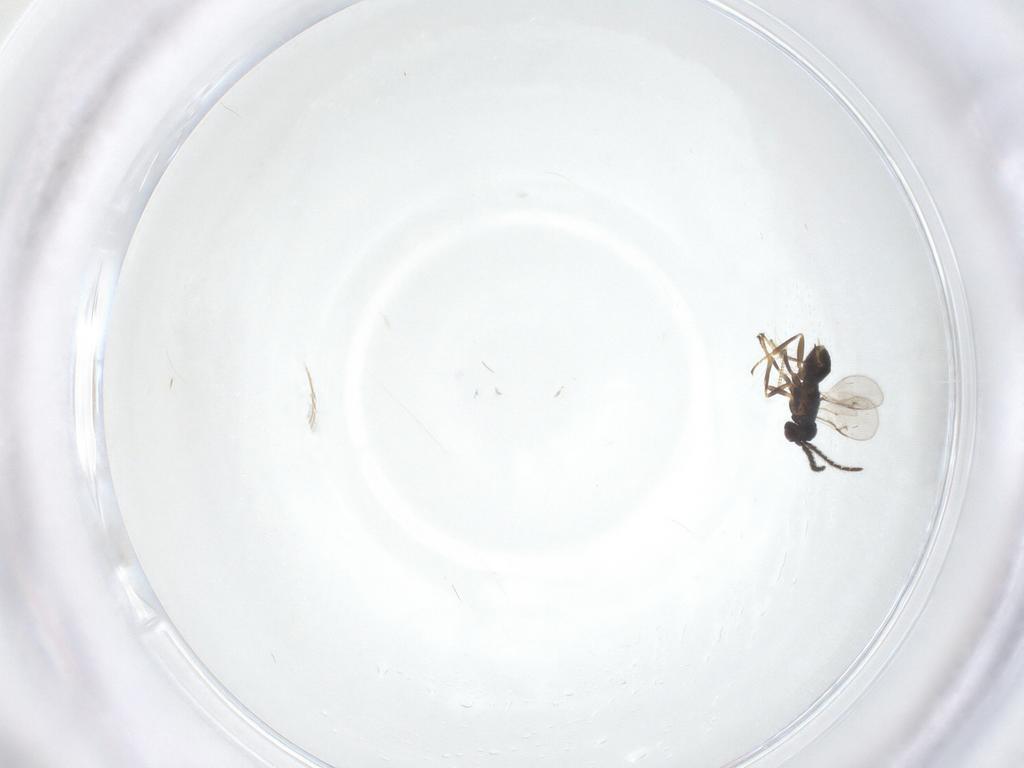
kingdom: Animalia
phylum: Arthropoda
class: Insecta
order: Hymenoptera
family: Encyrtidae
